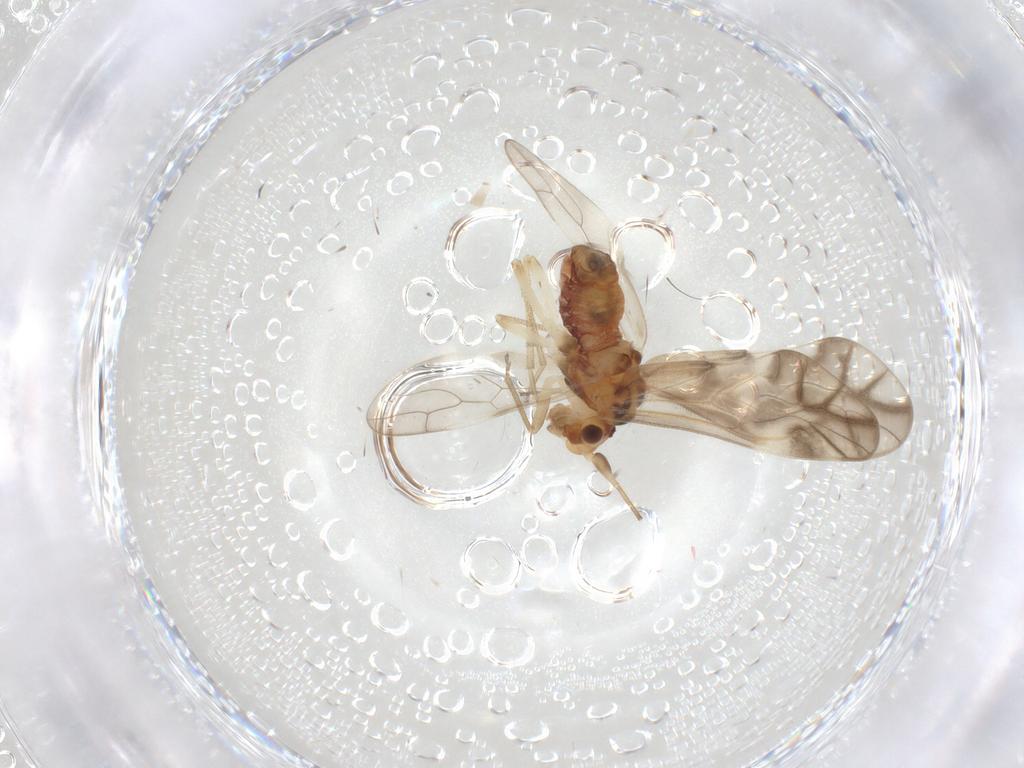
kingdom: Animalia
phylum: Arthropoda
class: Insecta
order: Psocodea
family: Caeciliusidae
